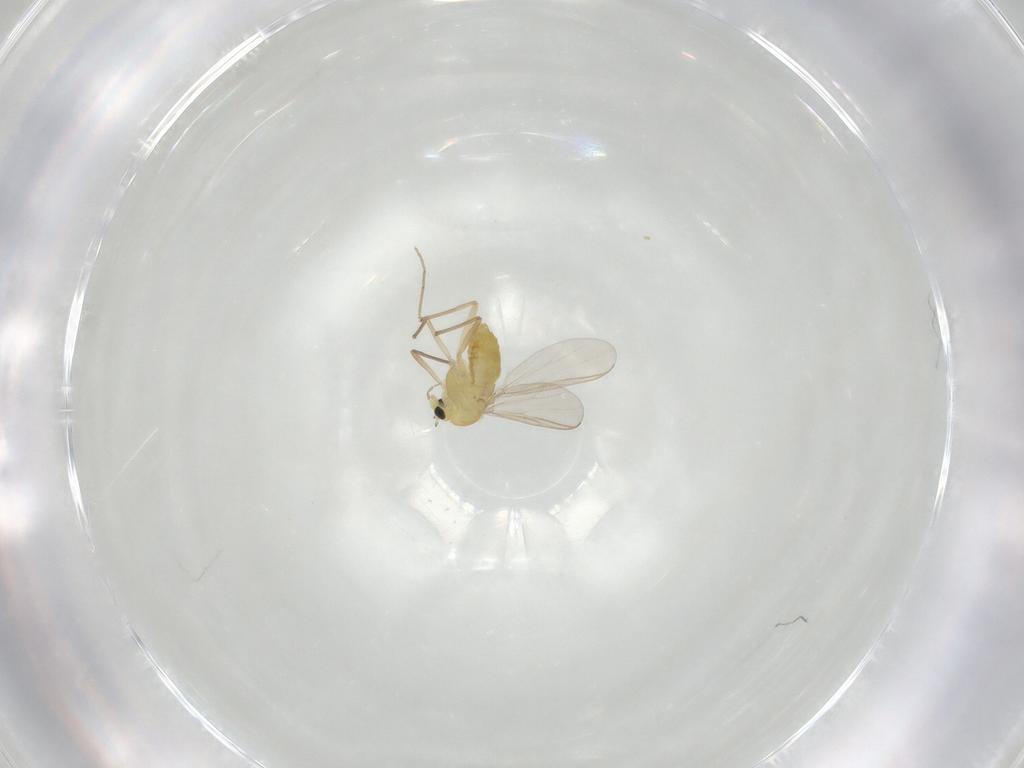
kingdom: Animalia
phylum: Arthropoda
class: Insecta
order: Diptera
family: Chironomidae
